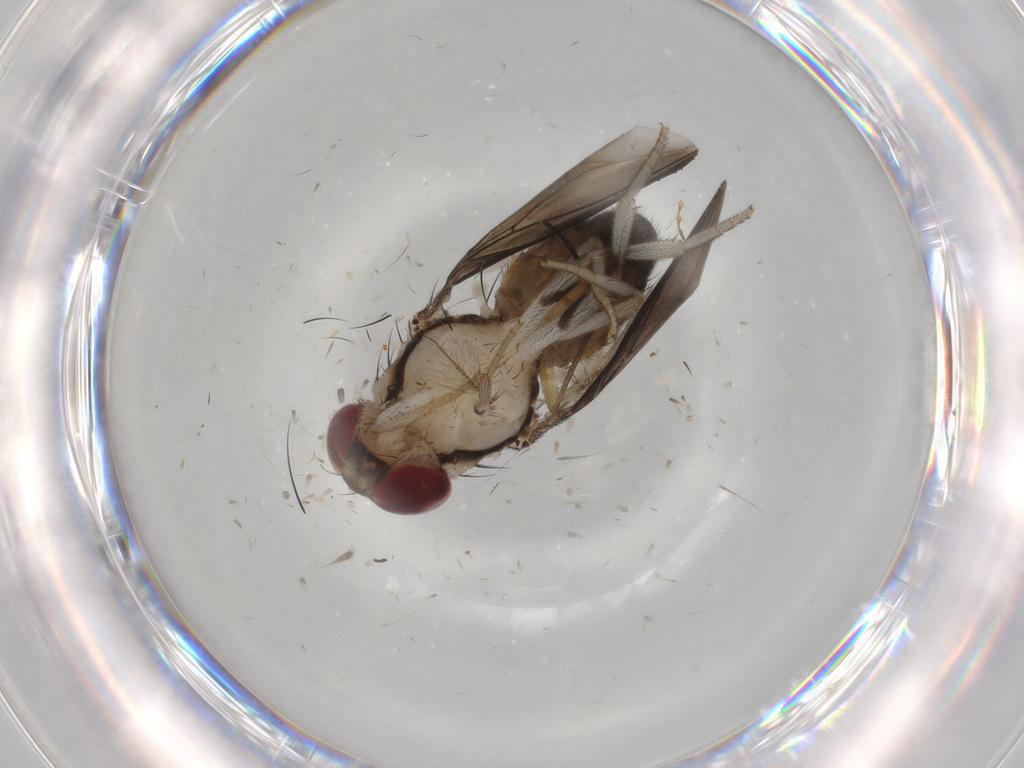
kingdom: Animalia
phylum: Arthropoda
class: Insecta
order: Diptera
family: Chironomidae
